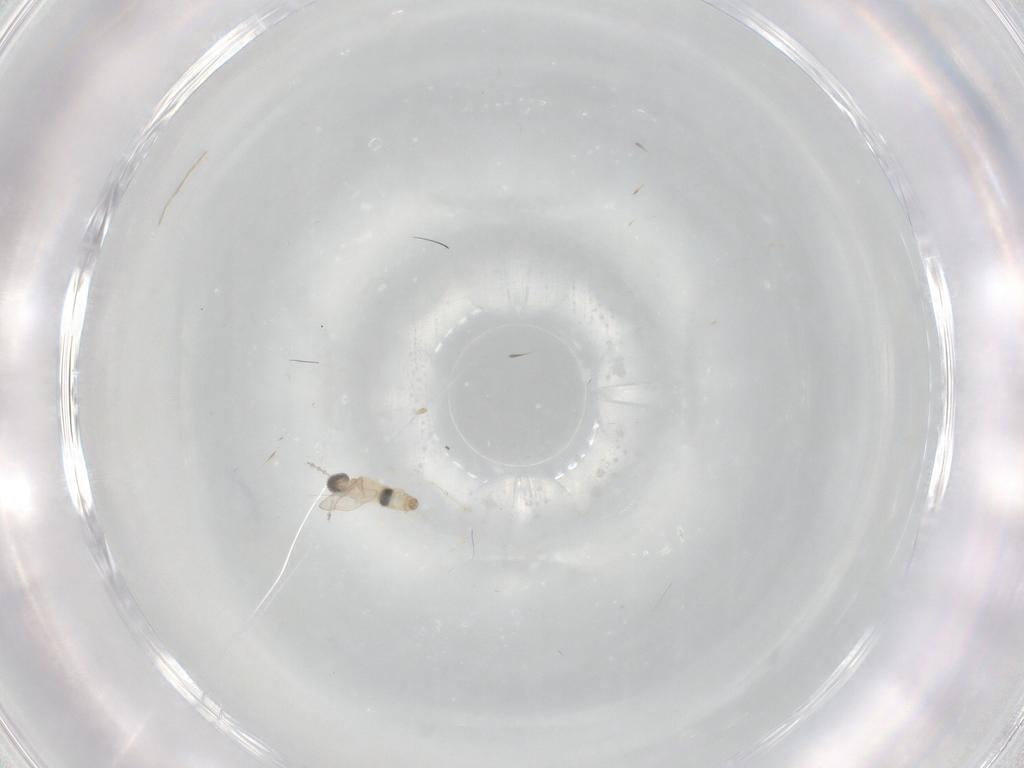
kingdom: Animalia
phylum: Arthropoda
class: Insecta
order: Diptera
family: Cecidomyiidae
